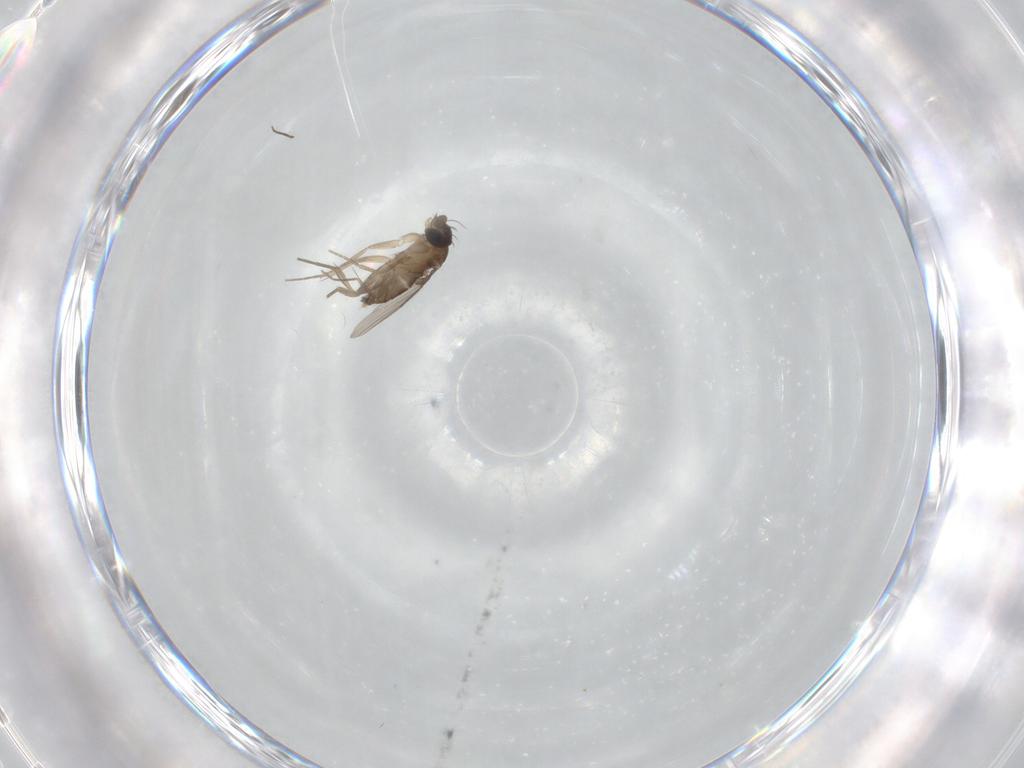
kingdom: Animalia
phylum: Arthropoda
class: Insecta
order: Diptera
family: Phoridae
